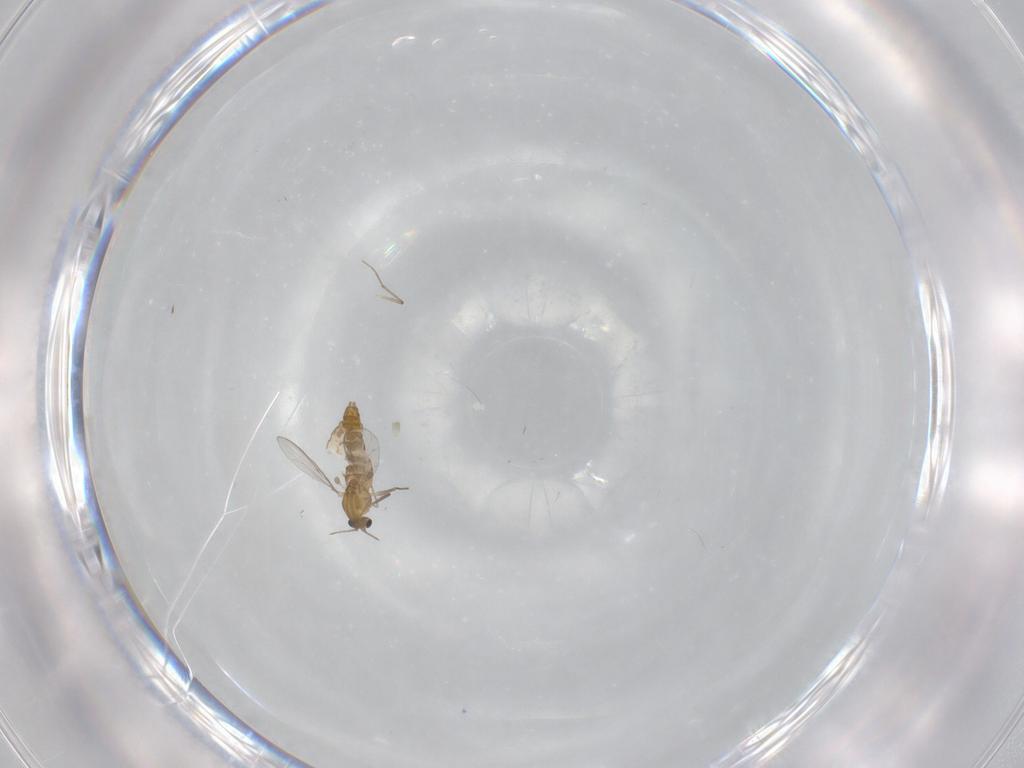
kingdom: Animalia
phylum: Arthropoda
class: Insecta
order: Diptera
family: Chironomidae
